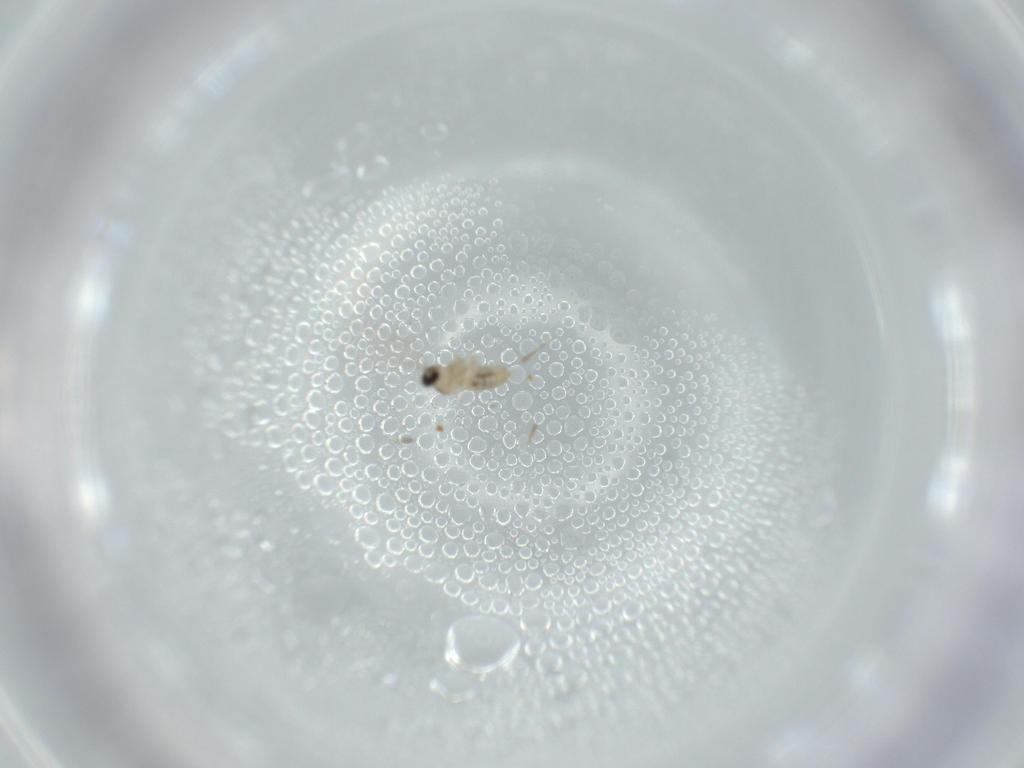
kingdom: Animalia
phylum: Arthropoda
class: Insecta
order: Diptera
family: Cecidomyiidae
